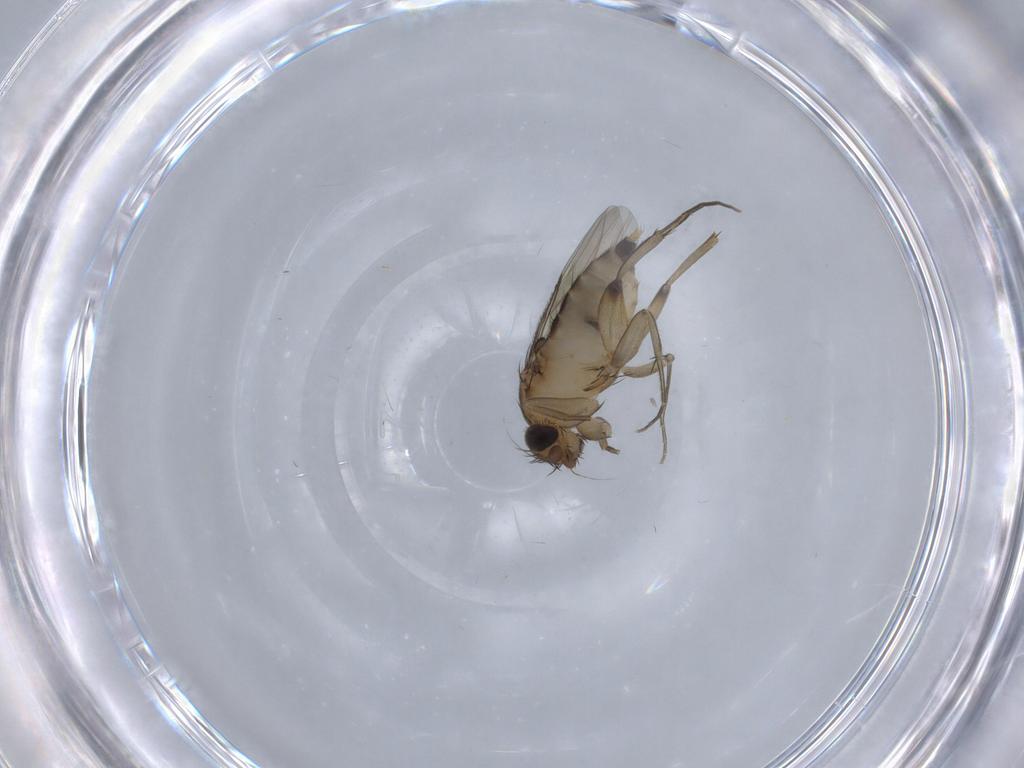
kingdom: Animalia
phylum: Arthropoda
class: Insecta
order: Diptera
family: Phoridae
